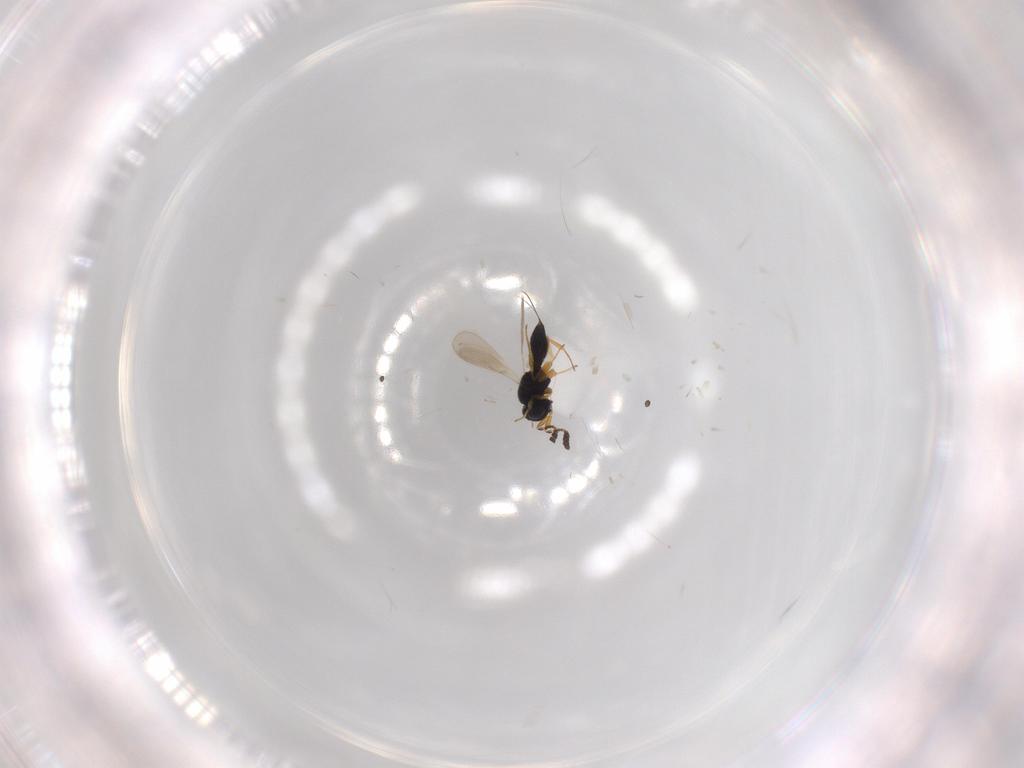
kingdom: Animalia
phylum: Arthropoda
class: Insecta
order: Hymenoptera
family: Scelionidae
